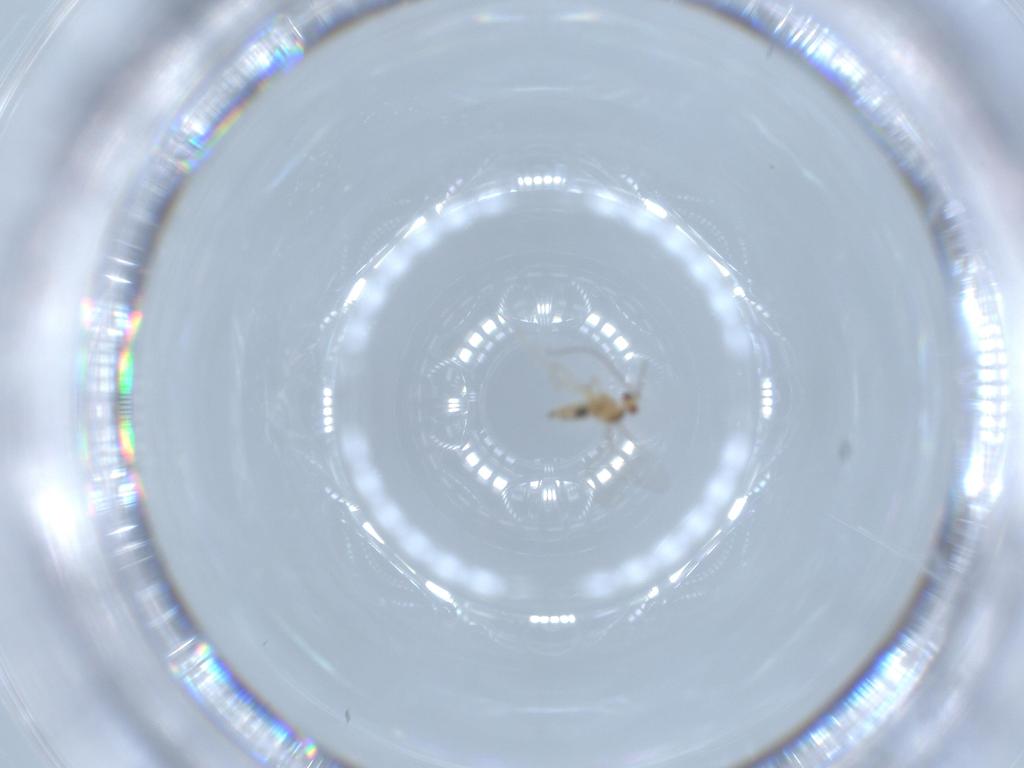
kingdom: Animalia
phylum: Arthropoda
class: Insecta
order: Diptera
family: Cecidomyiidae
